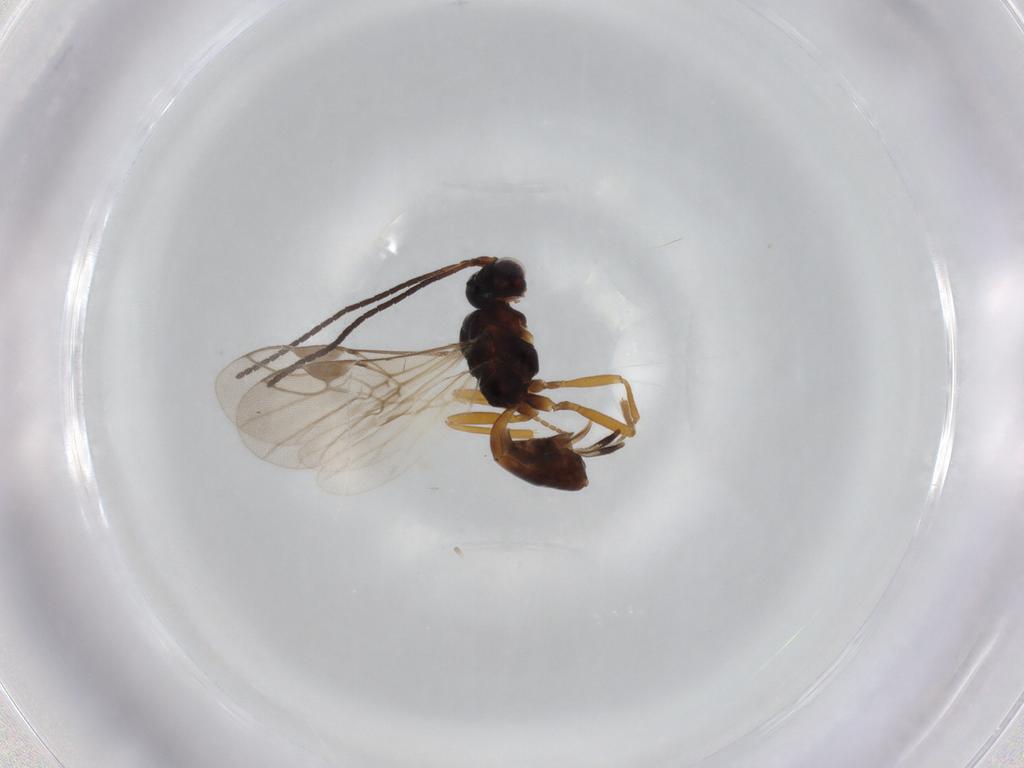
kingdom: Animalia
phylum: Arthropoda
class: Insecta
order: Hymenoptera
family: Braconidae
